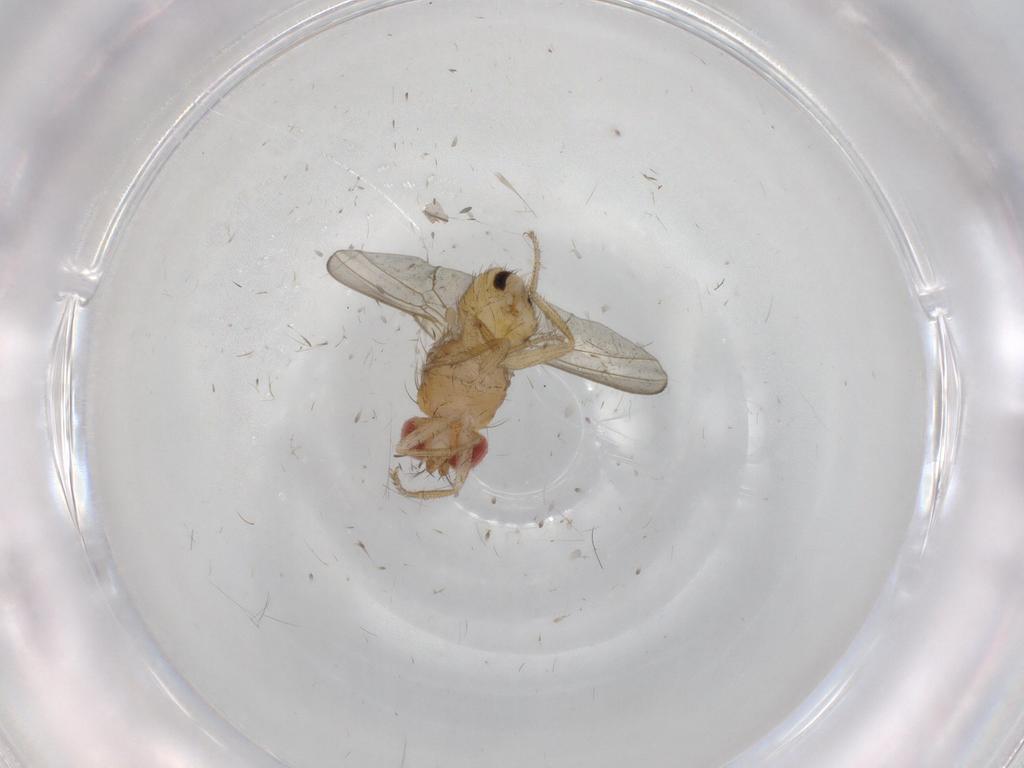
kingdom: Animalia
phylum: Arthropoda
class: Insecta
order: Diptera
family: Drosophilidae
